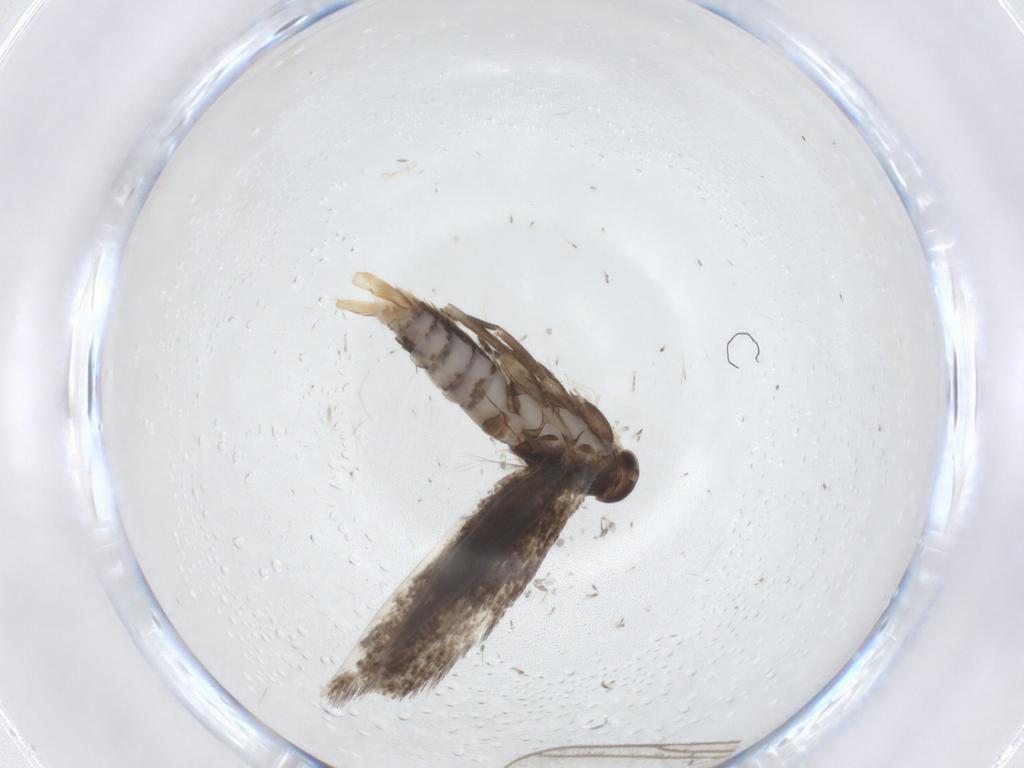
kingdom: Animalia
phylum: Arthropoda
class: Insecta
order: Lepidoptera
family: Elachistidae
